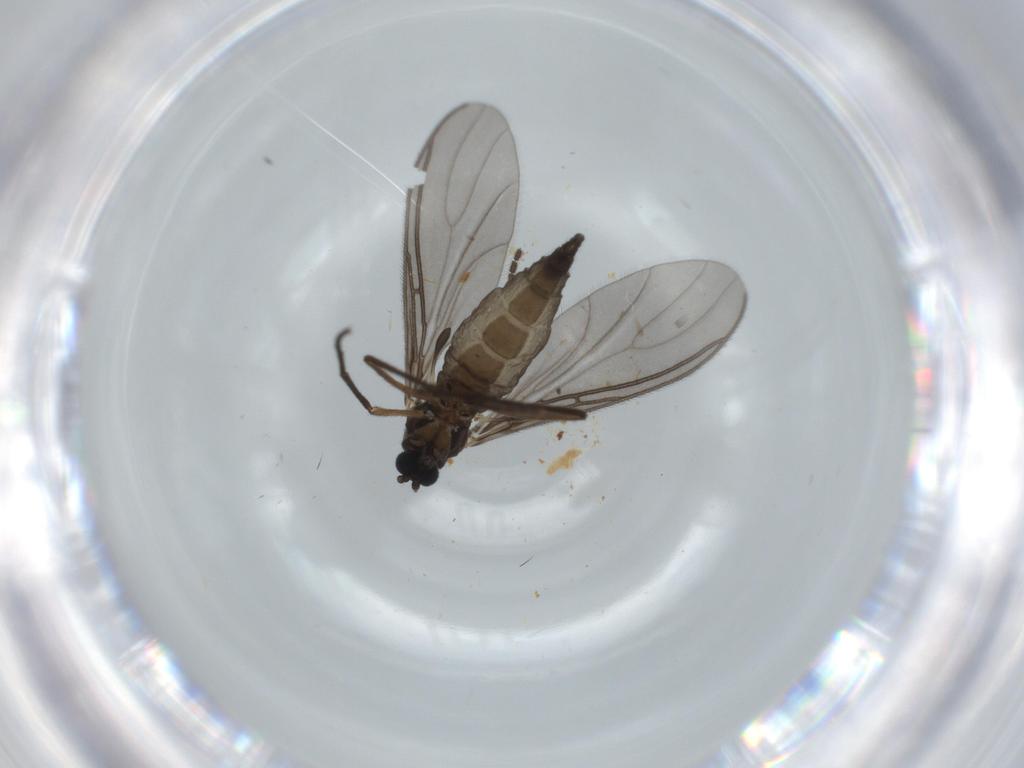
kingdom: Animalia
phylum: Arthropoda
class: Insecta
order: Diptera
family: Sciaridae
